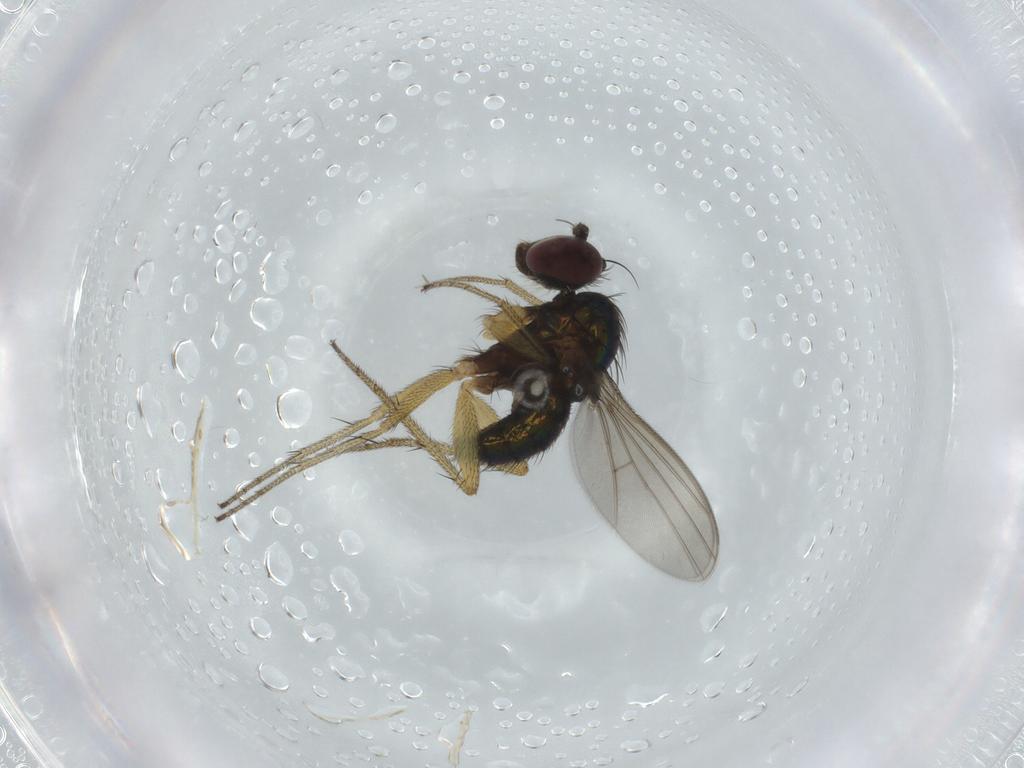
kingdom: Animalia
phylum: Arthropoda
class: Insecta
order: Diptera
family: Dolichopodidae
